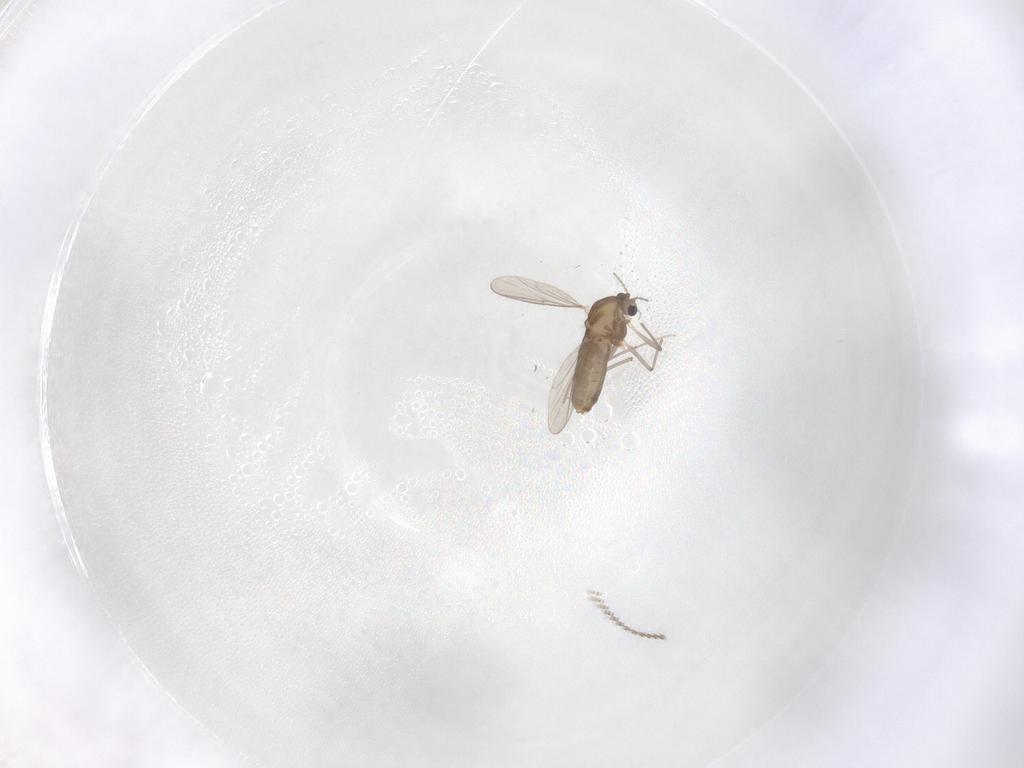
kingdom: Animalia
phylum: Arthropoda
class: Insecta
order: Diptera
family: Chironomidae
